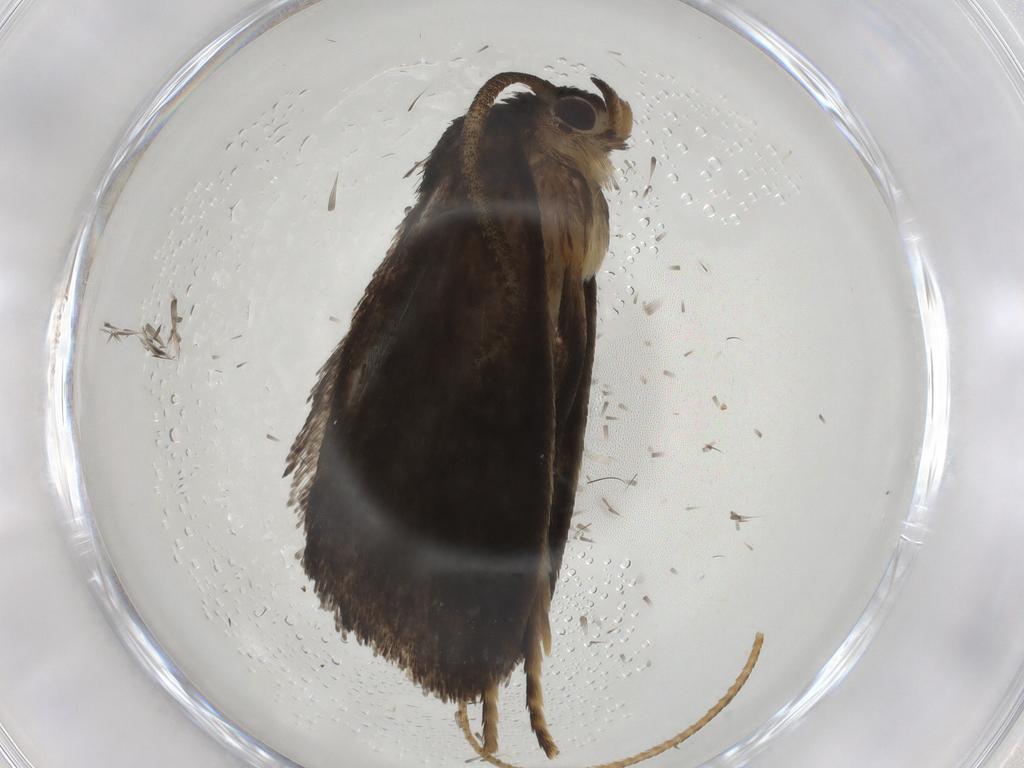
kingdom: Animalia
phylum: Arthropoda
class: Insecta
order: Lepidoptera
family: Limacodidae
